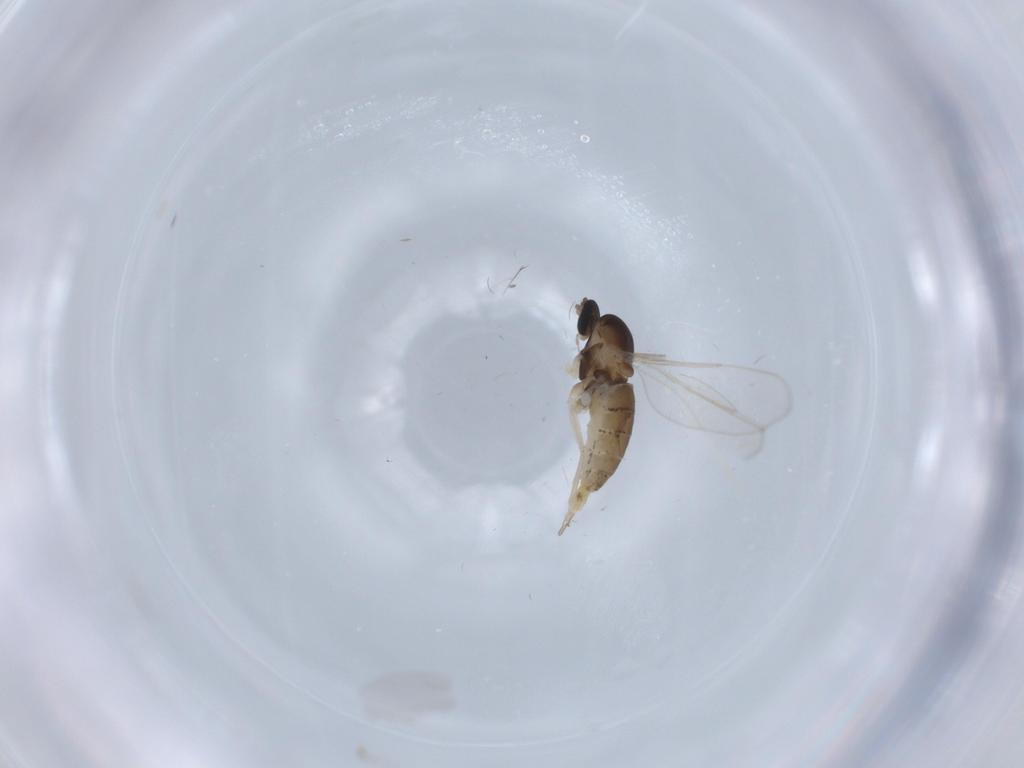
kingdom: Animalia
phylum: Arthropoda
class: Insecta
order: Diptera
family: Cecidomyiidae
